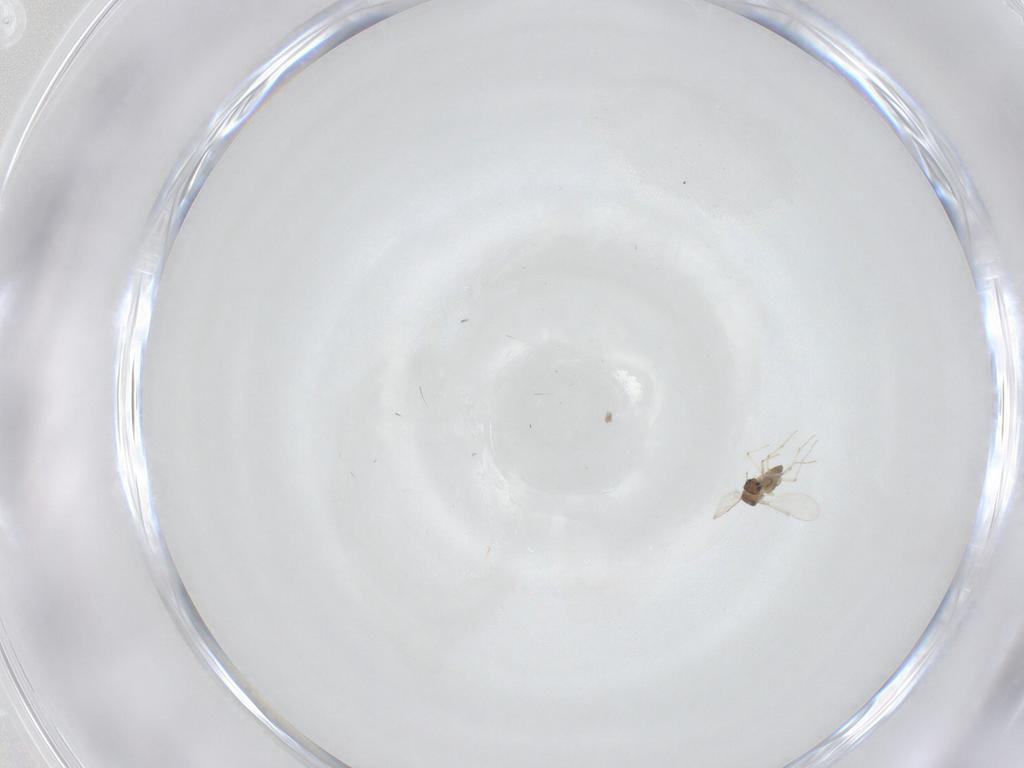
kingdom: Animalia
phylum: Arthropoda
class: Insecta
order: Diptera
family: Chironomidae
